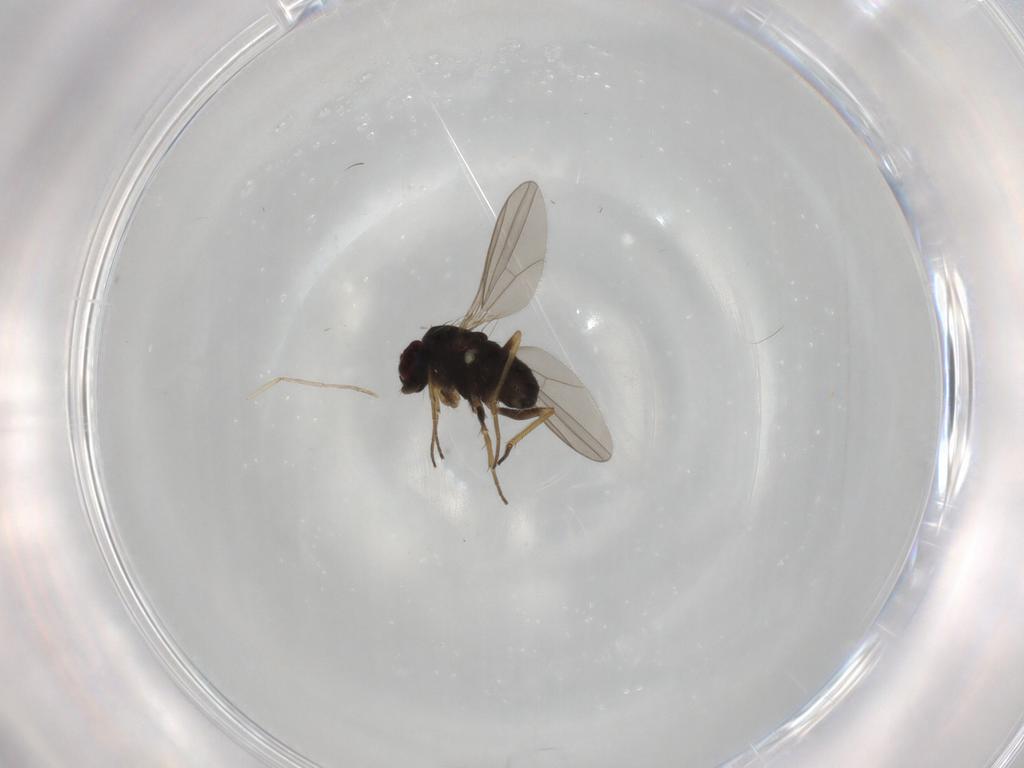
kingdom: Animalia
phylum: Arthropoda
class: Insecta
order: Diptera
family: Dolichopodidae
